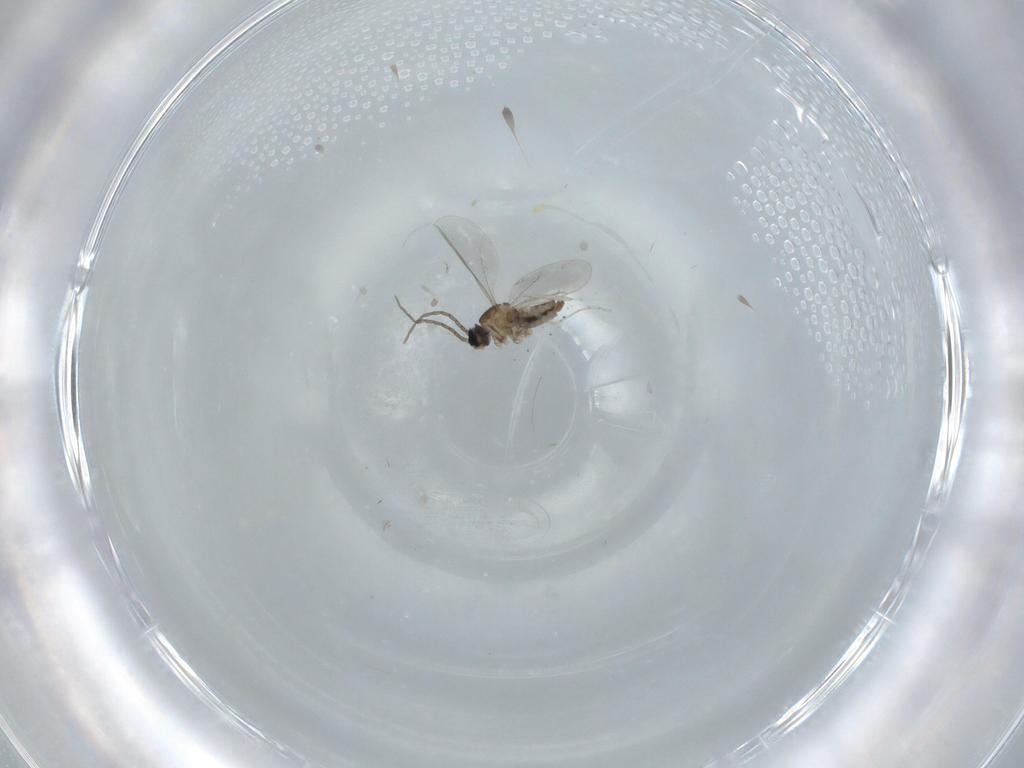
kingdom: Animalia
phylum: Arthropoda
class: Insecta
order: Diptera
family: Cecidomyiidae
